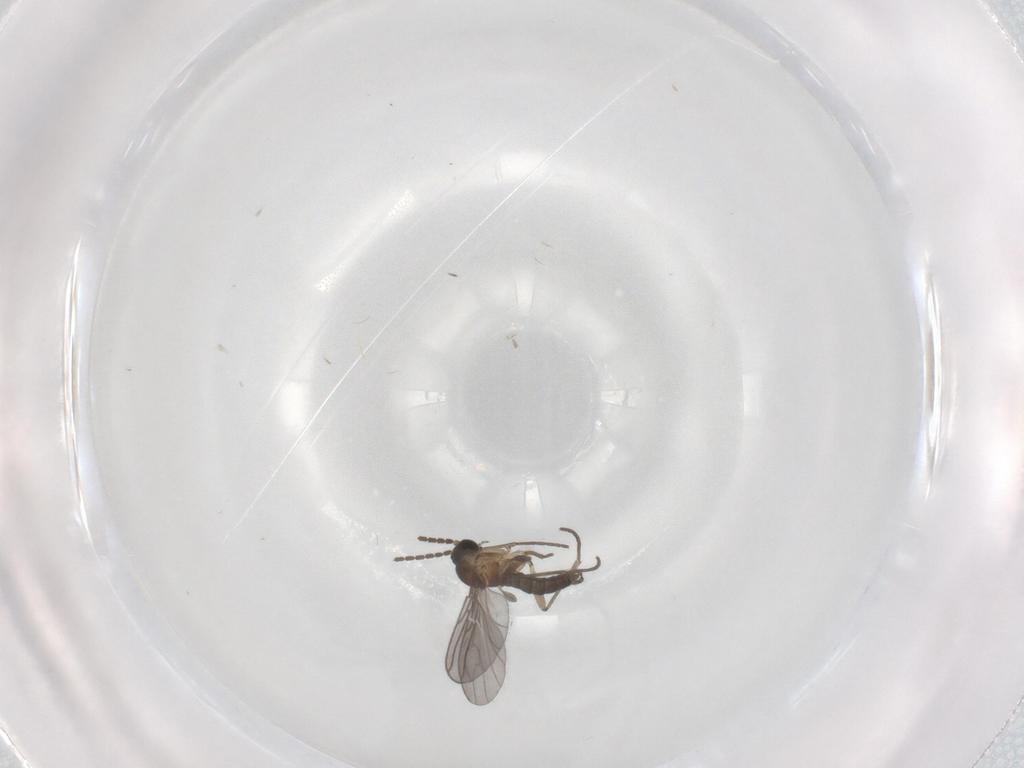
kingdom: Animalia
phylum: Arthropoda
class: Insecta
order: Diptera
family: Sciaridae
